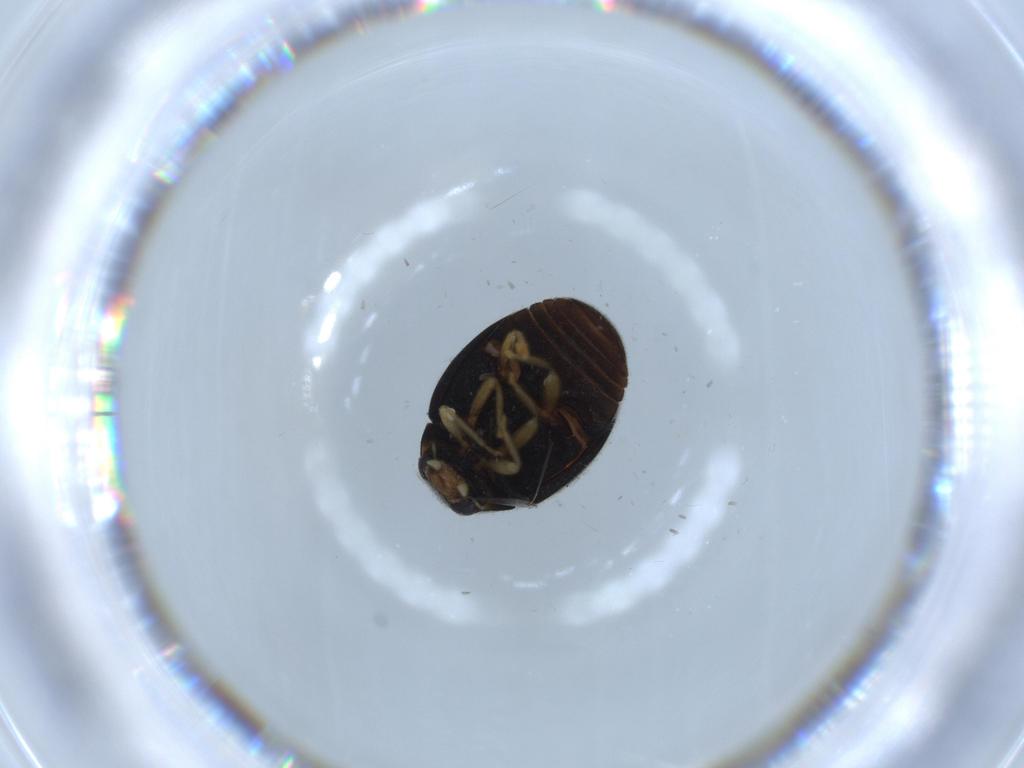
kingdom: Animalia
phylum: Arthropoda
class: Insecta
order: Coleoptera
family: Coccinellidae
